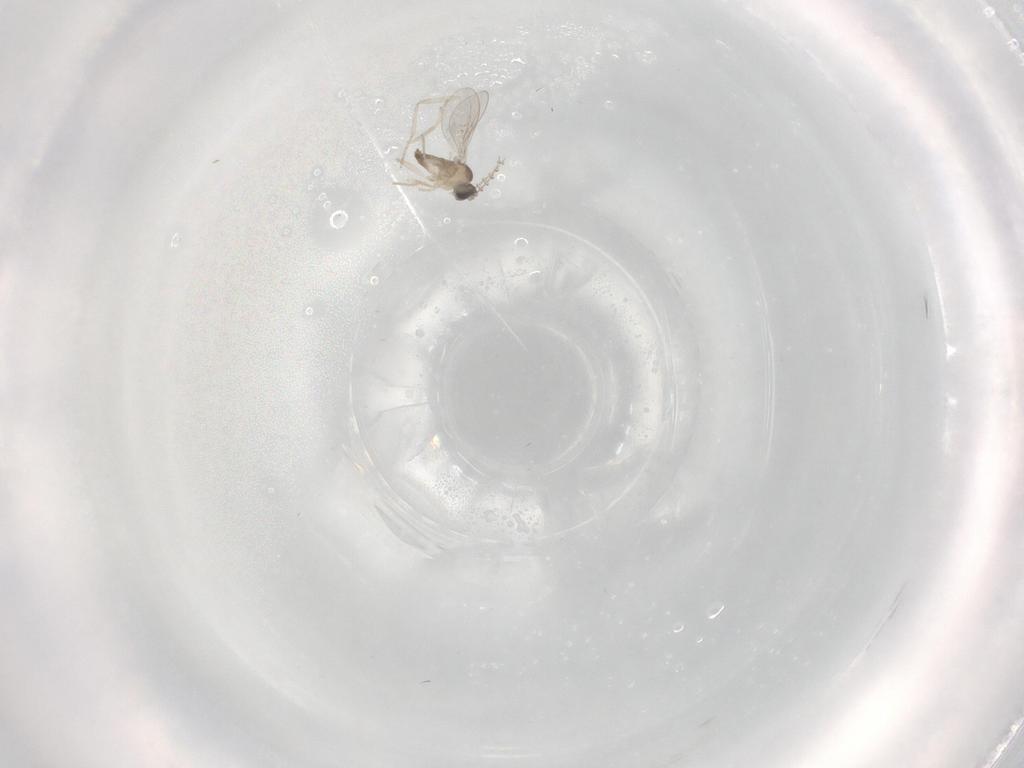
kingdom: Animalia
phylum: Arthropoda
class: Insecta
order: Diptera
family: Cecidomyiidae
